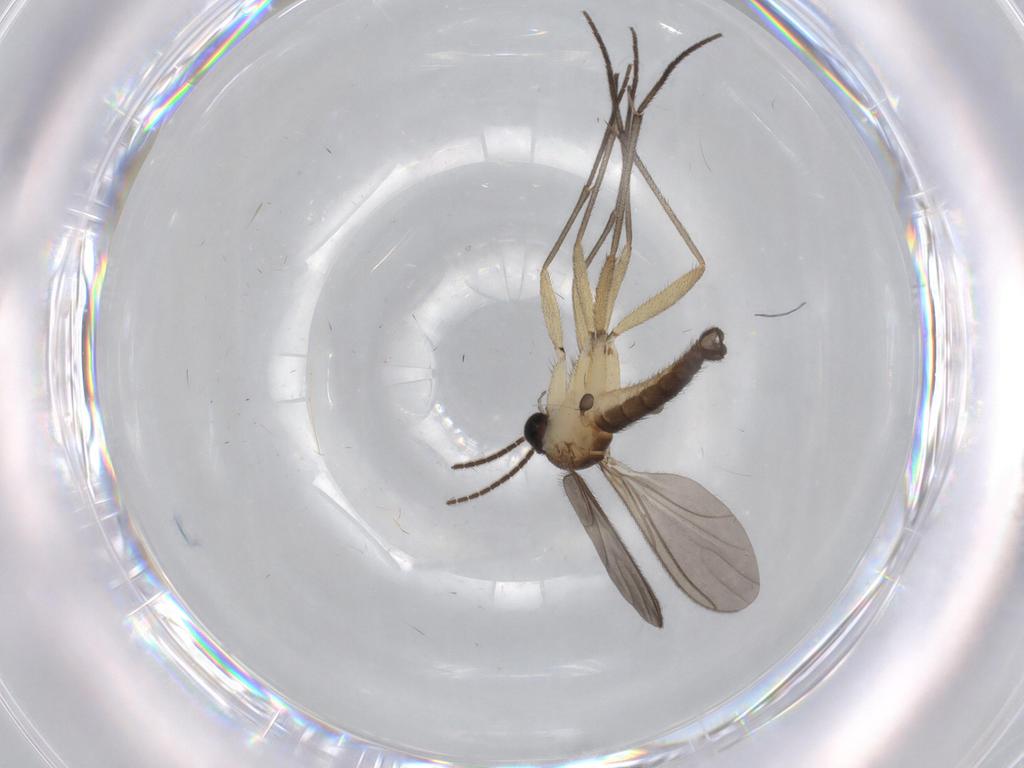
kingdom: Animalia
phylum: Arthropoda
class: Insecta
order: Diptera
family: Sciaridae
